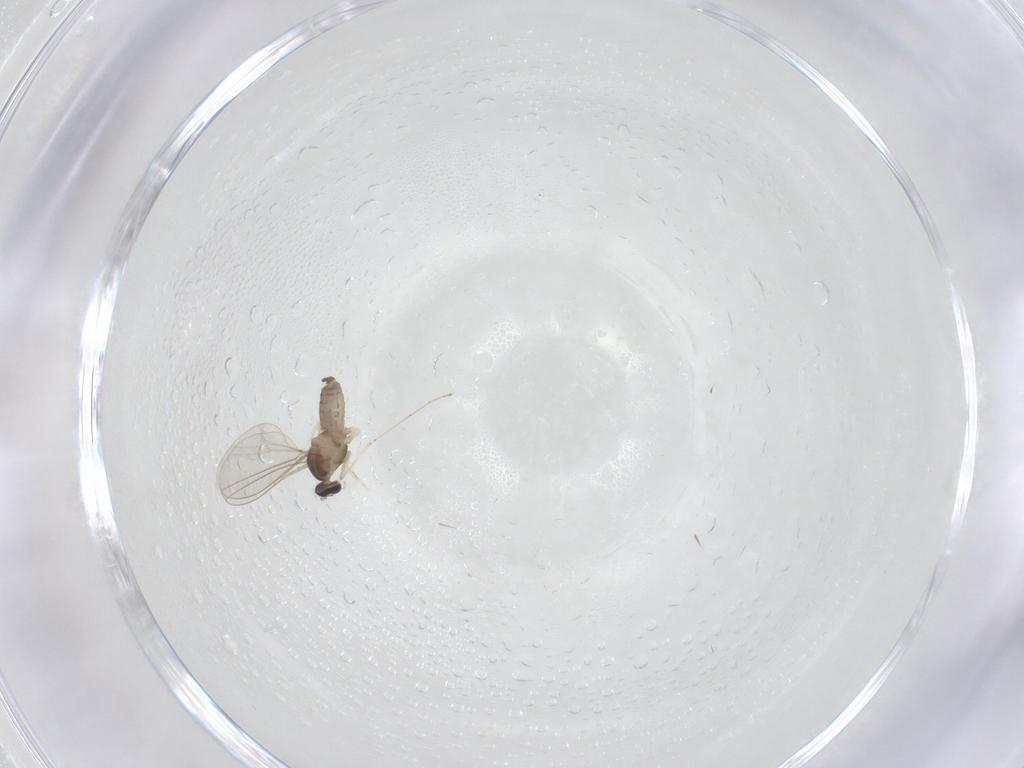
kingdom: Animalia
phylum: Arthropoda
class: Insecta
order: Diptera
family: Cecidomyiidae
